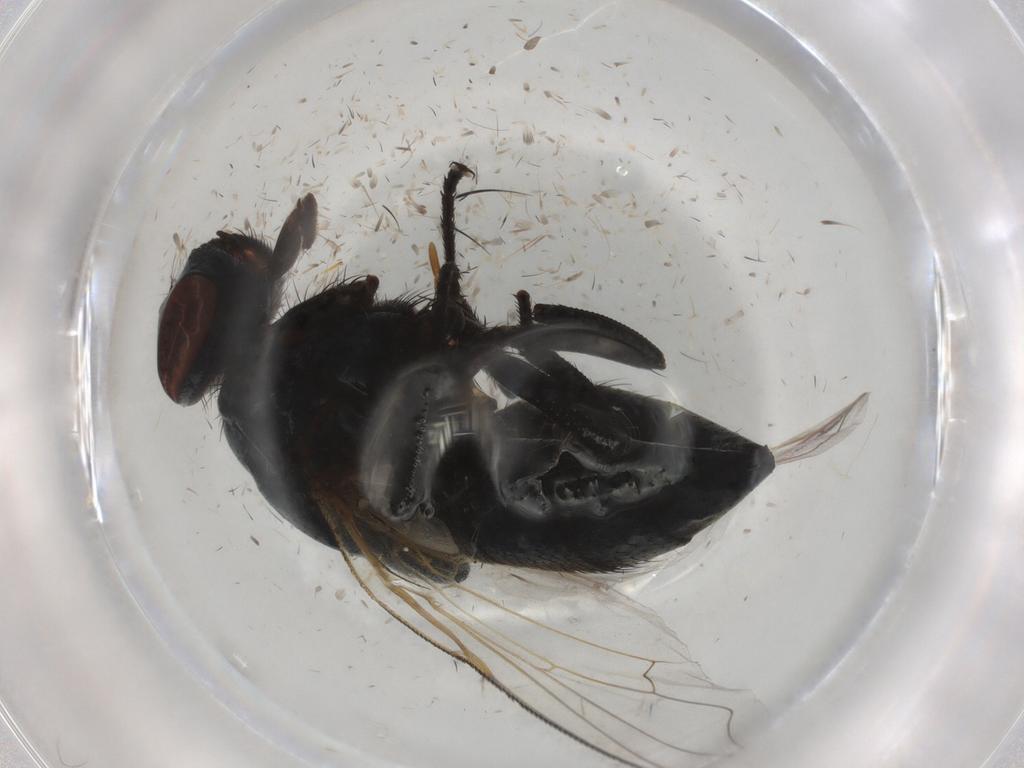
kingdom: Animalia
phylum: Arthropoda
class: Insecta
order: Diptera
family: Muscidae
